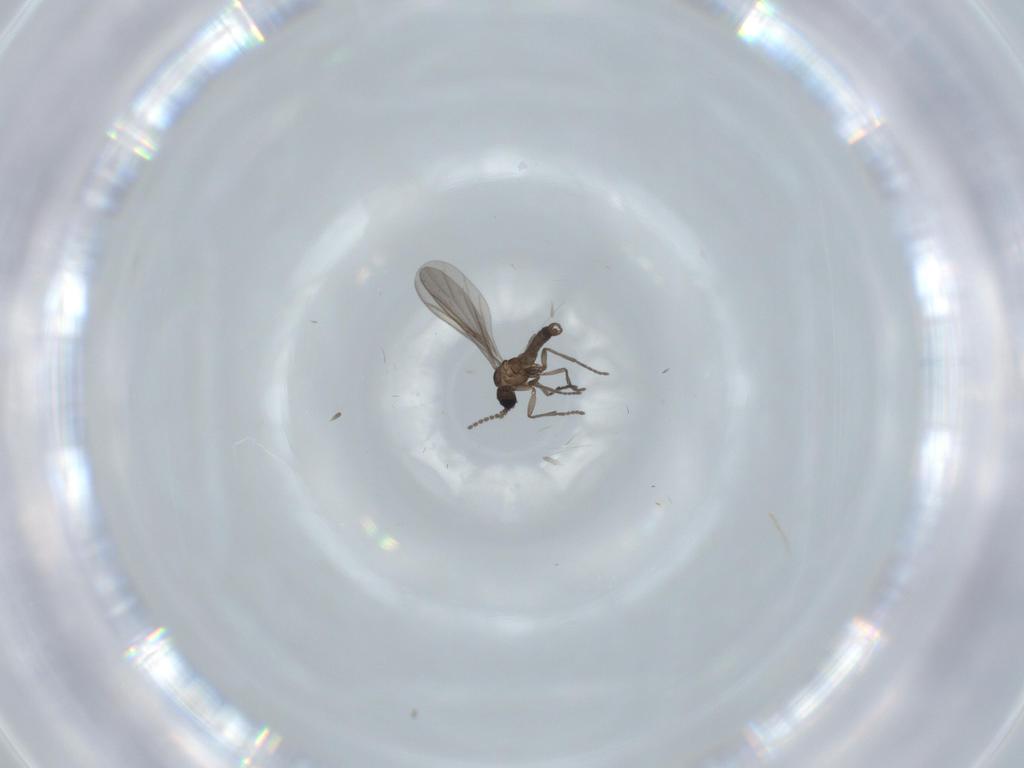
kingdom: Animalia
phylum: Arthropoda
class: Insecta
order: Diptera
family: Sciaridae
